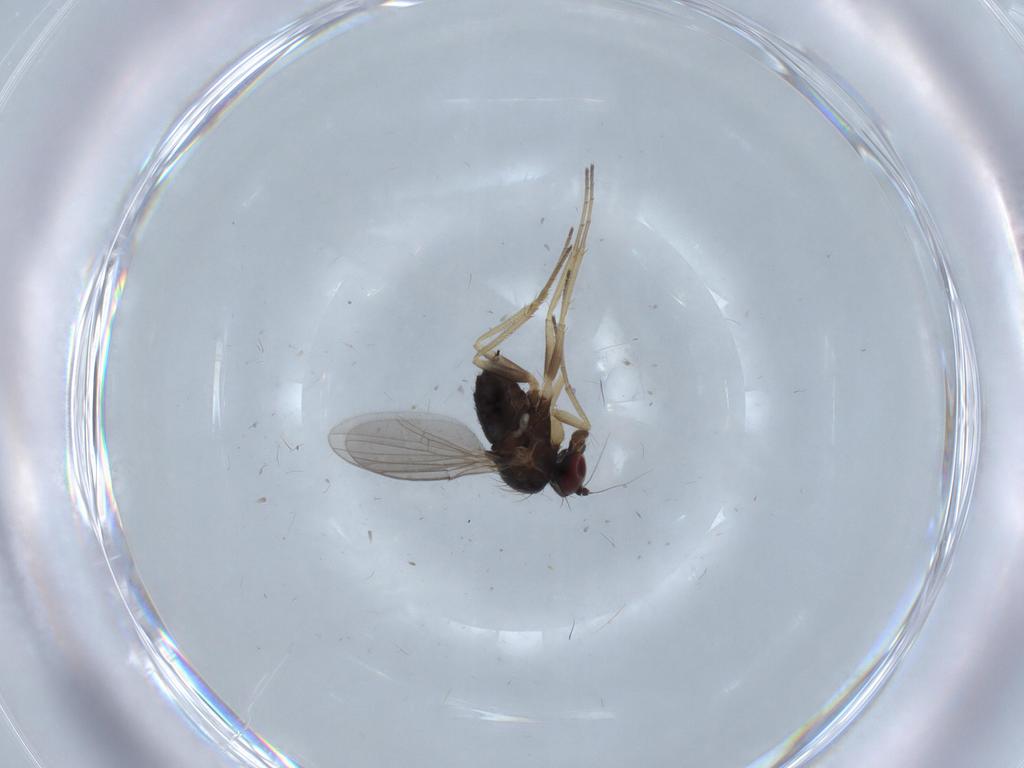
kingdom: Animalia
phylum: Arthropoda
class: Insecta
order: Diptera
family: Dolichopodidae
